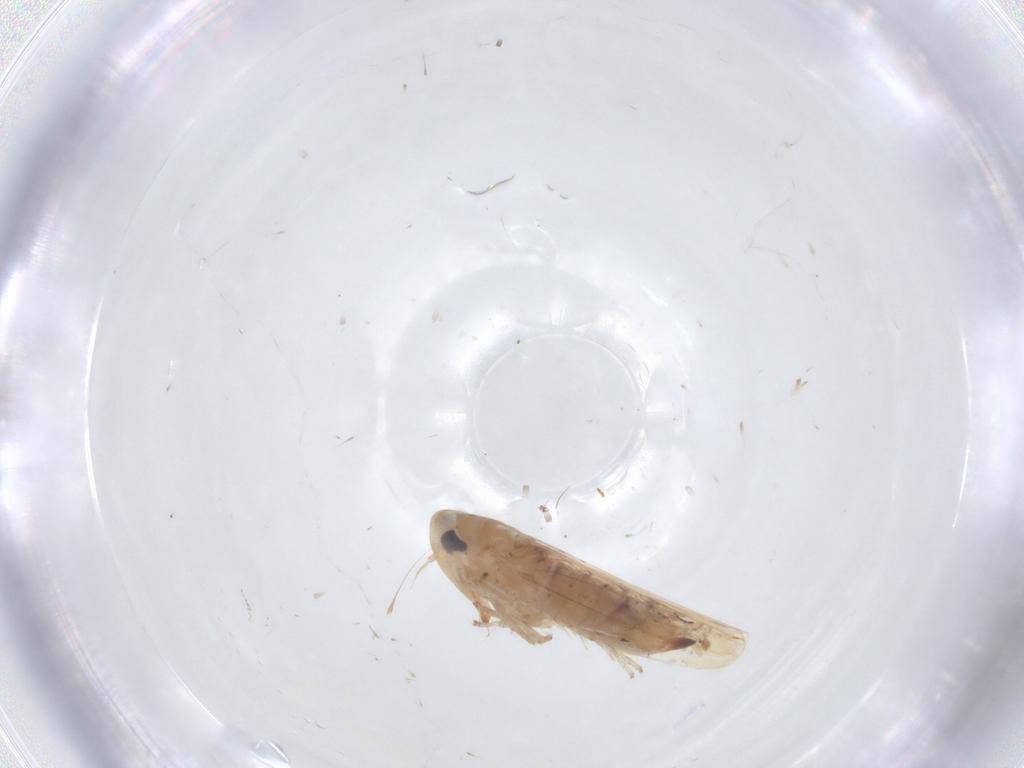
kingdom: Animalia
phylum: Arthropoda
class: Insecta
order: Hemiptera
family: Cicadellidae
